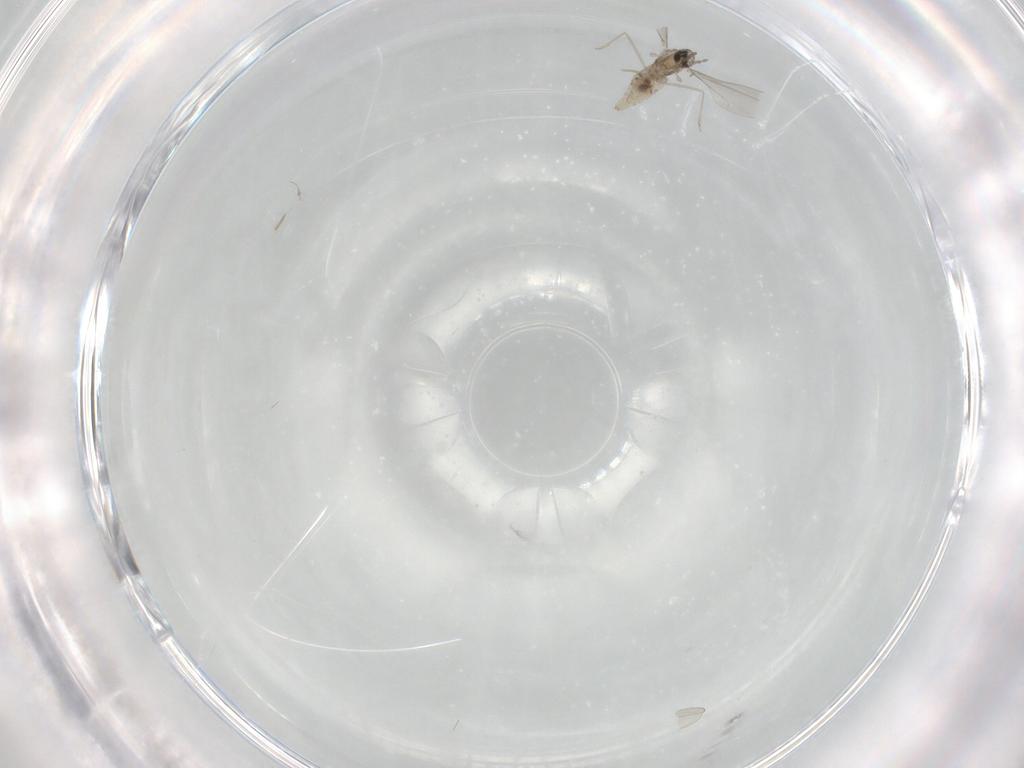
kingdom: Animalia
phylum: Arthropoda
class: Insecta
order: Diptera
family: Cecidomyiidae
